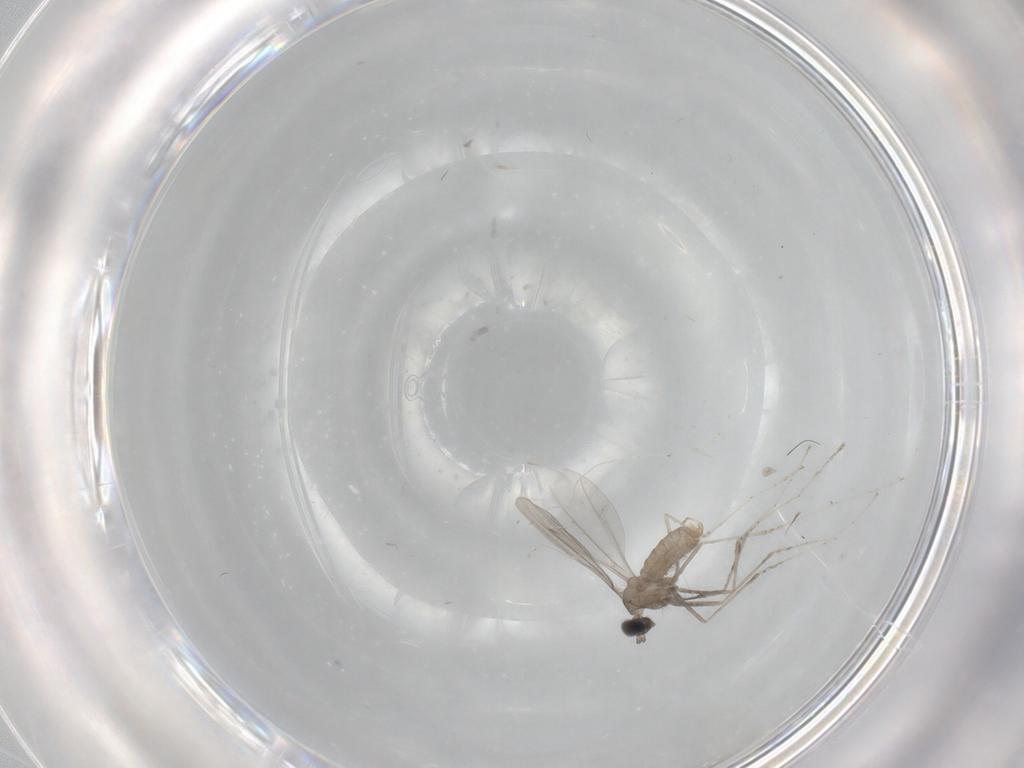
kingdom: Animalia
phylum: Arthropoda
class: Insecta
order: Diptera
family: Cecidomyiidae
